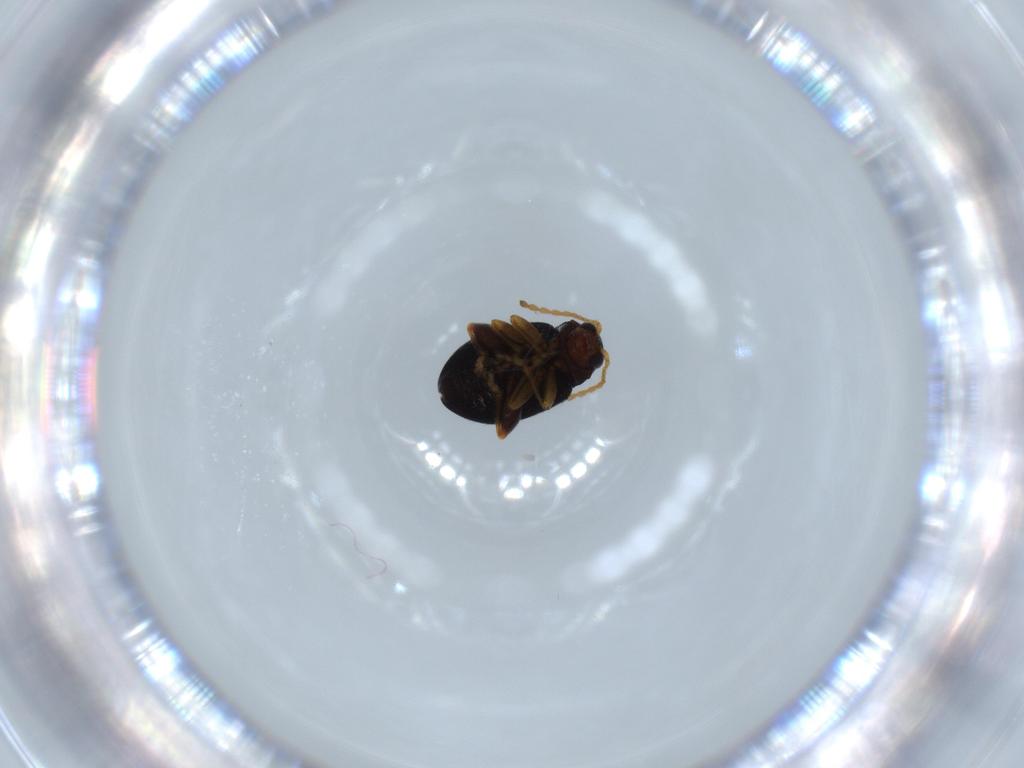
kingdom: Animalia
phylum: Arthropoda
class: Insecta
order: Coleoptera
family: Chrysomelidae
